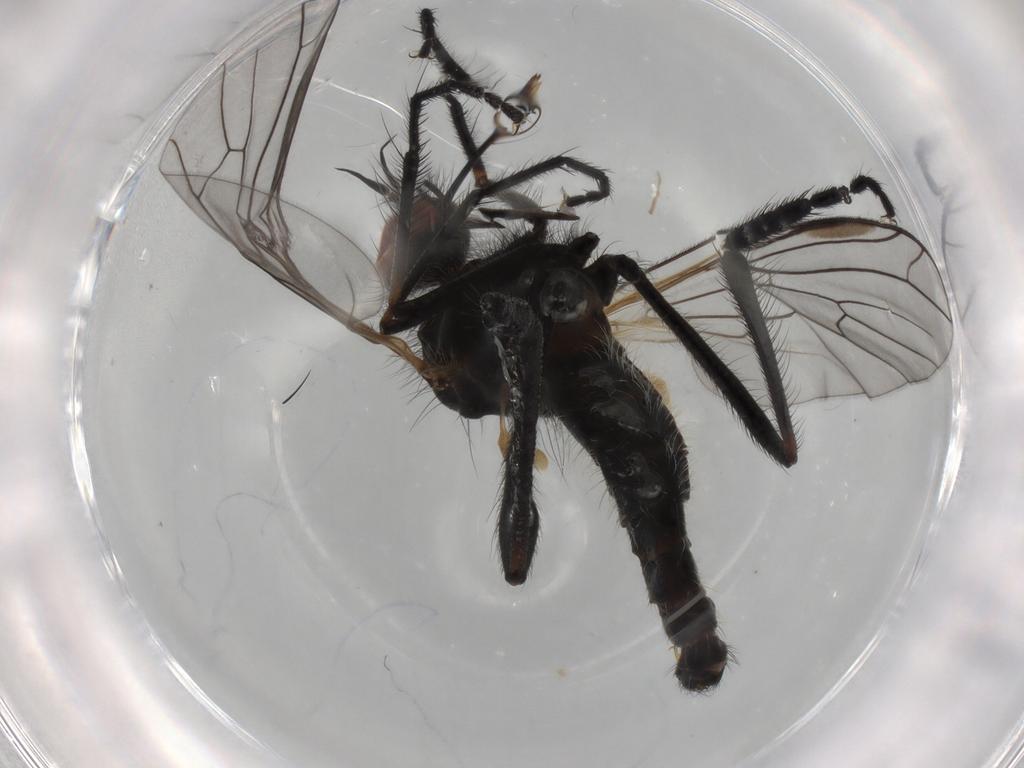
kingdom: Animalia
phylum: Arthropoda
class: Insecta
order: Diptera
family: Empididae
